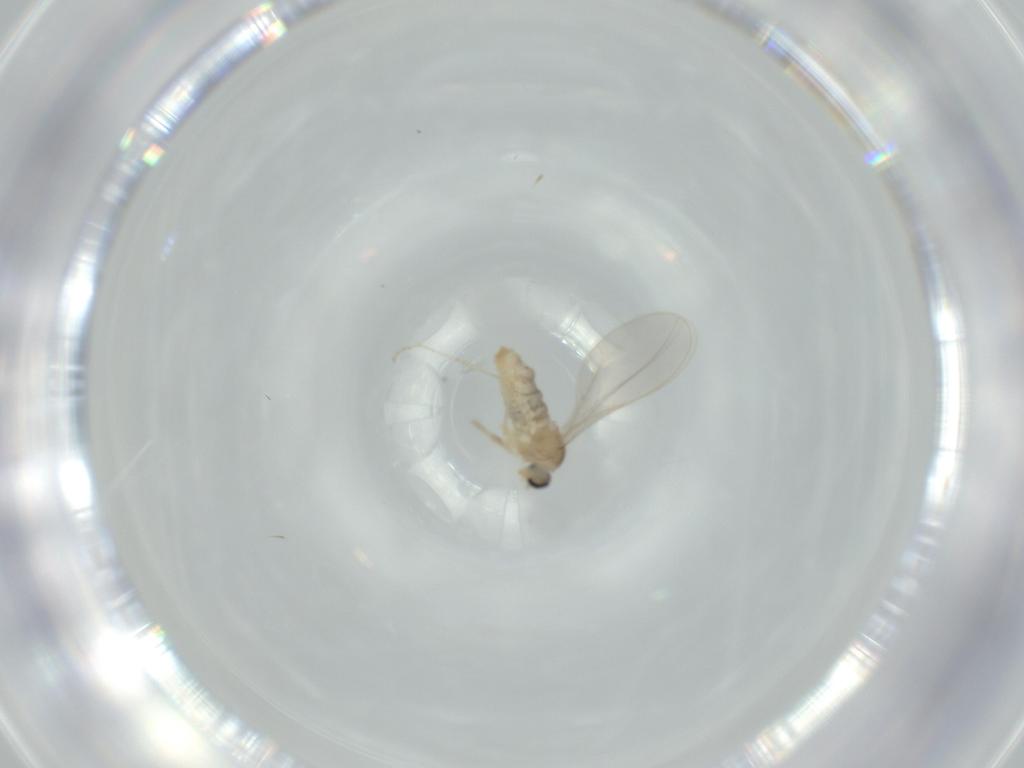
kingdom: Animalia
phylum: Arthropoda
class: Insecta
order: Diptera
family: Cecidomyiidae
